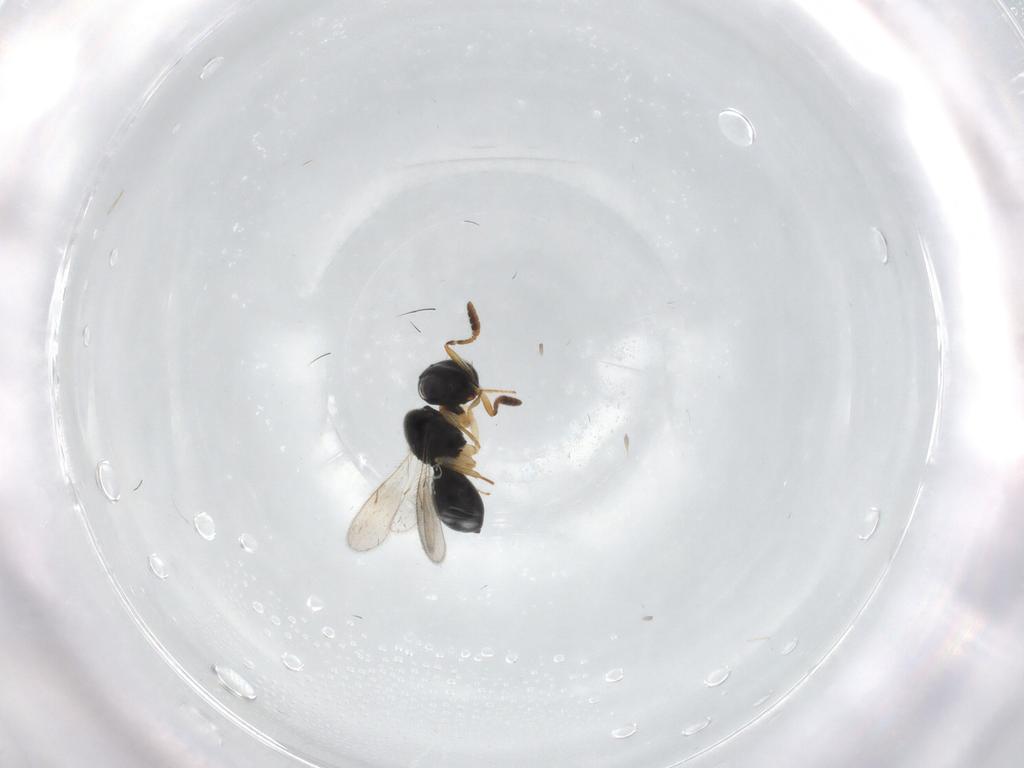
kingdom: Animalia
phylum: Arthropoda
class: Insecta
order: Hymenoptera
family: Scelionidae
